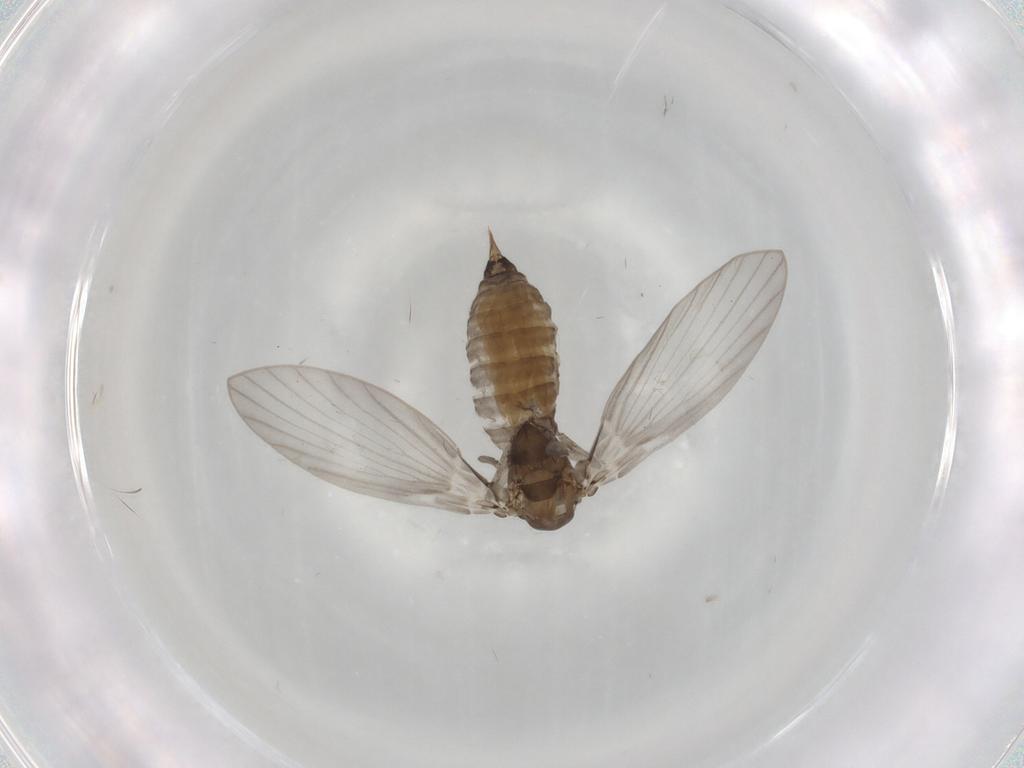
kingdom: Animalia
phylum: Arthropoda
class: Insecta
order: Diptera
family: Psychodidae
